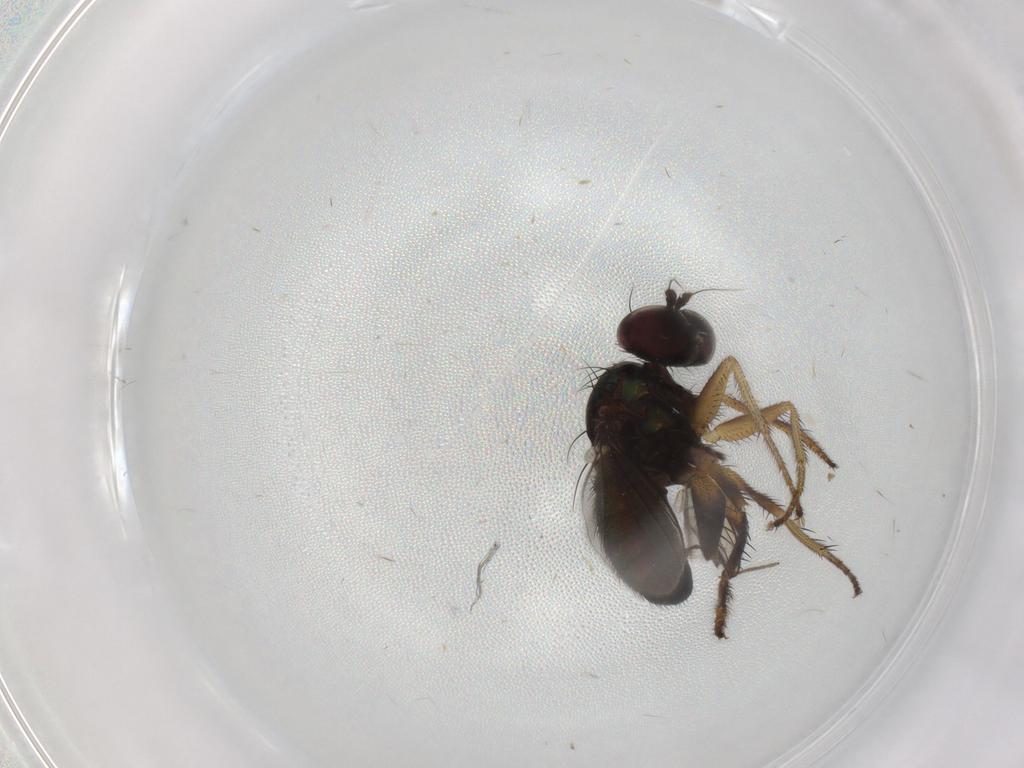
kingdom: Animalia
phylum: Arthropoda
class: Insecta
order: Diptera
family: Dolichopodidae
